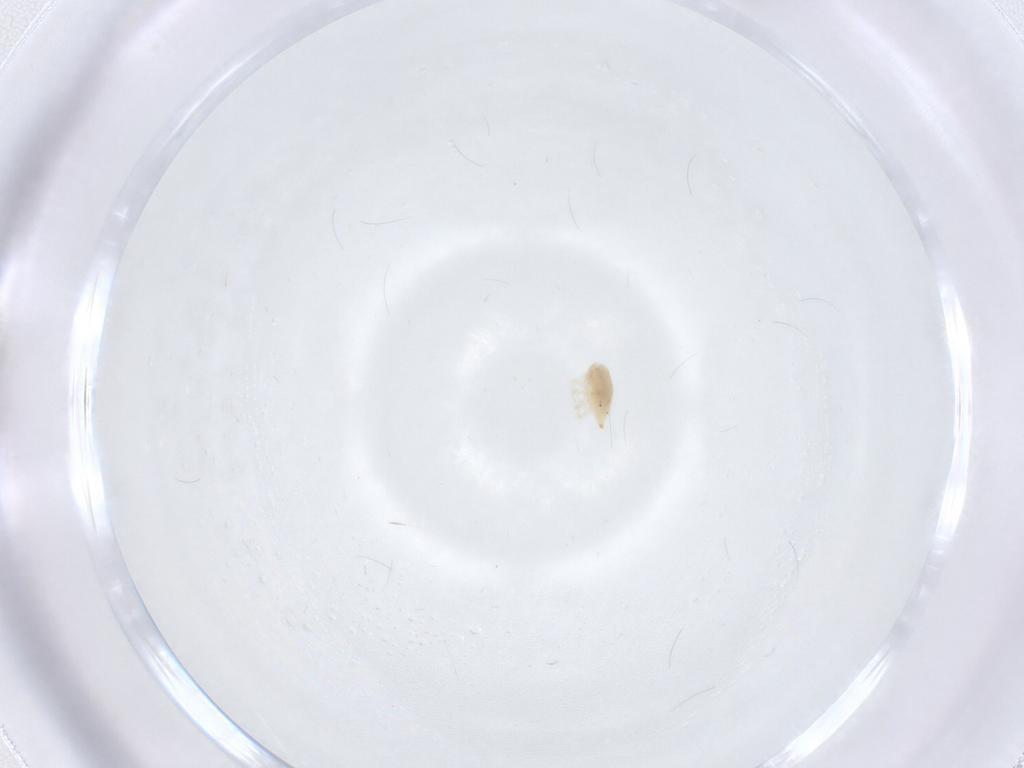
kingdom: Animalia
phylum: Arthropoda
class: Arachnida
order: Trombidiformes
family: Bdellidae
